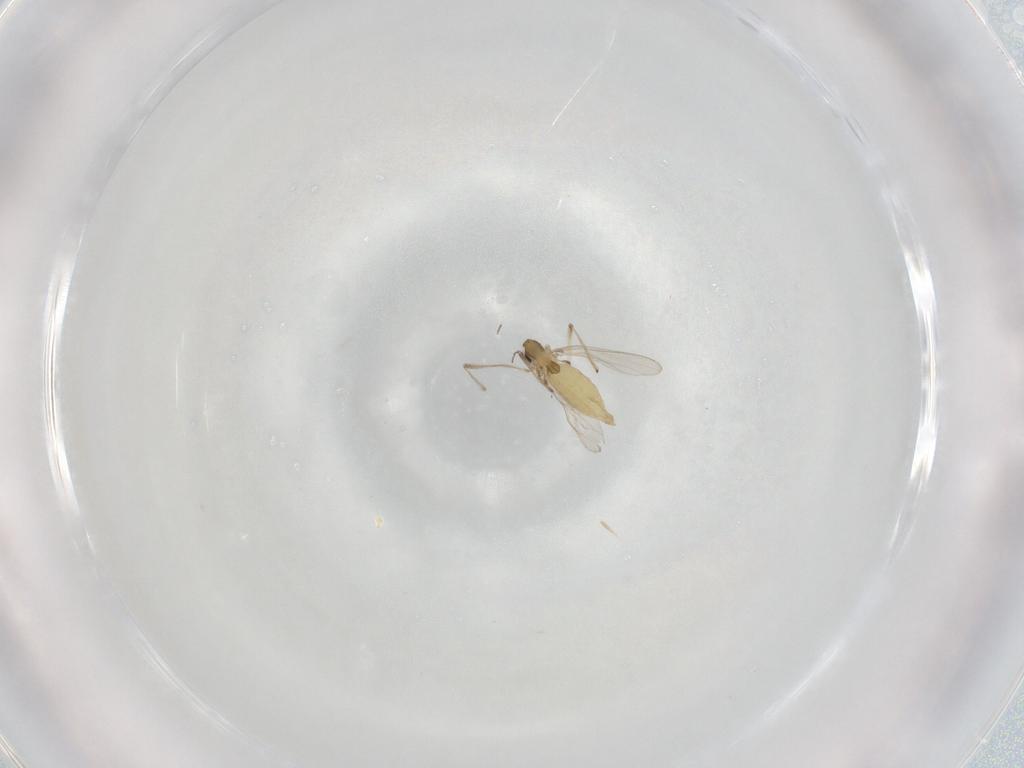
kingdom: Animalia
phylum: Arthropoda
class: Insecta
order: Diptera
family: Chironomidae
